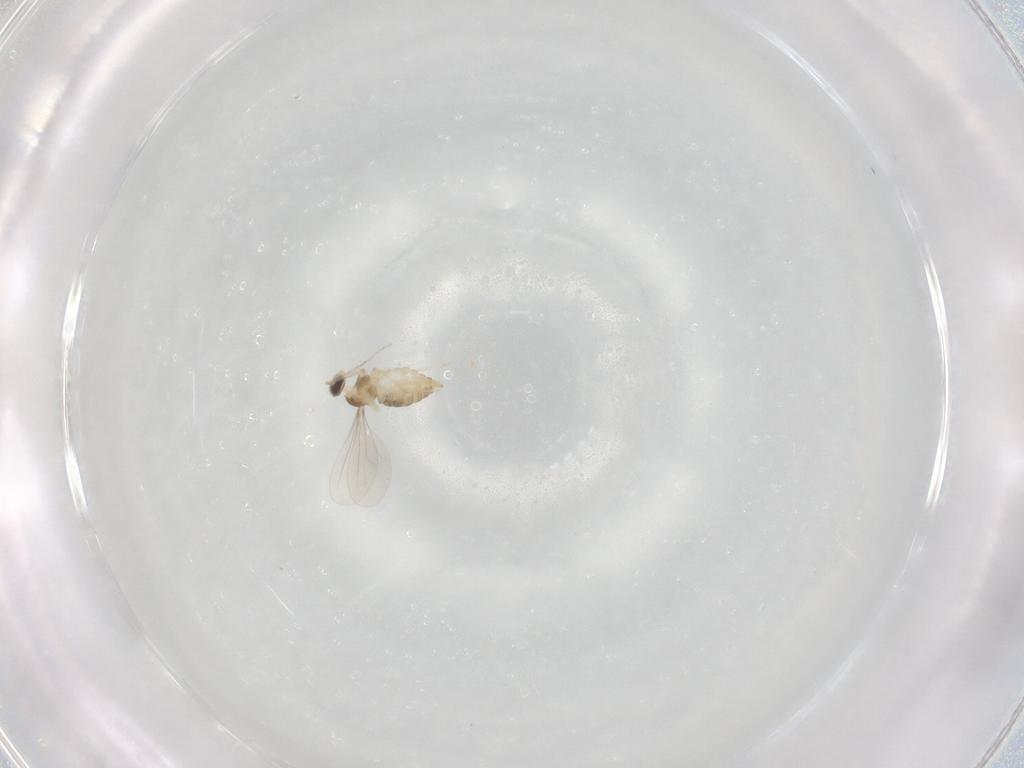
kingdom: Animalia
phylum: Arthropoda
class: Insecta
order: Diptera
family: Cecidomyiidae
